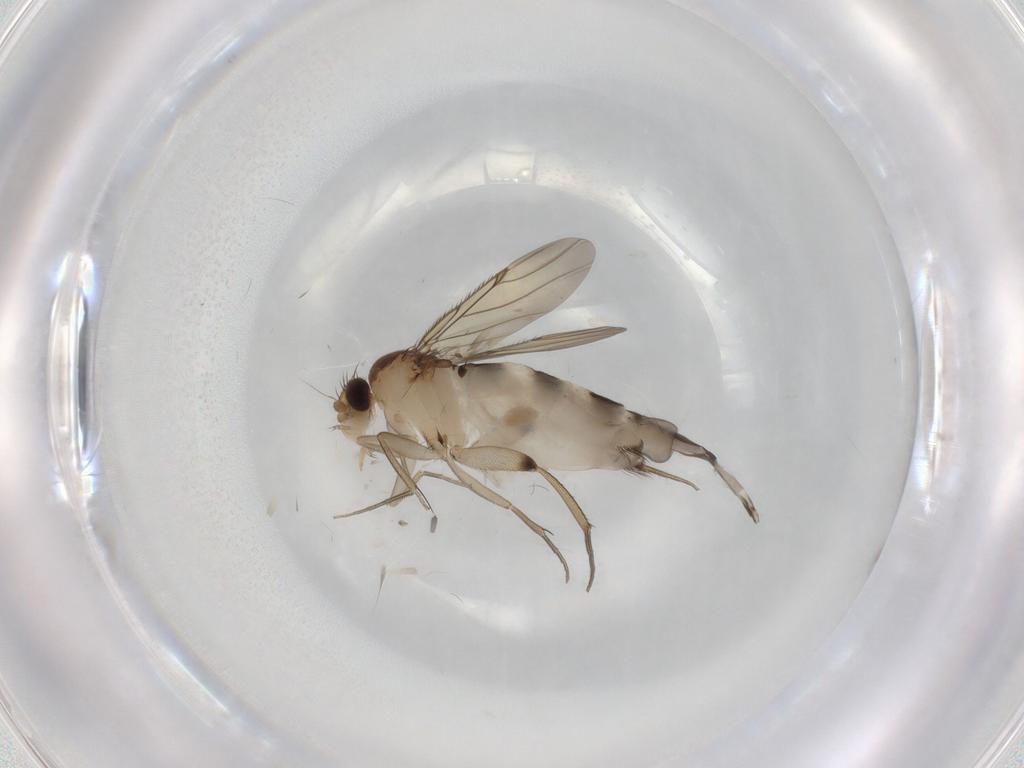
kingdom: Animalia
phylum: Arthropoda
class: Insecta
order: Diptera
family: Phoridae
